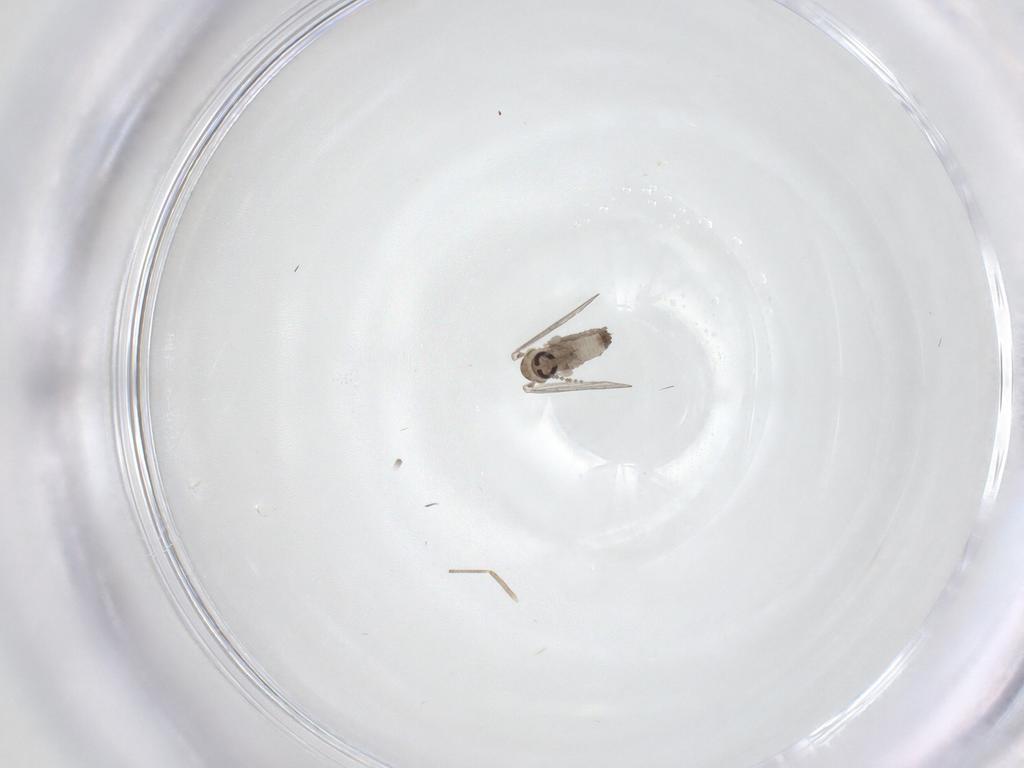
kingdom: Animalia
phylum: Arthropoda
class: Insecta
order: Diptera
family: Psychodidae
